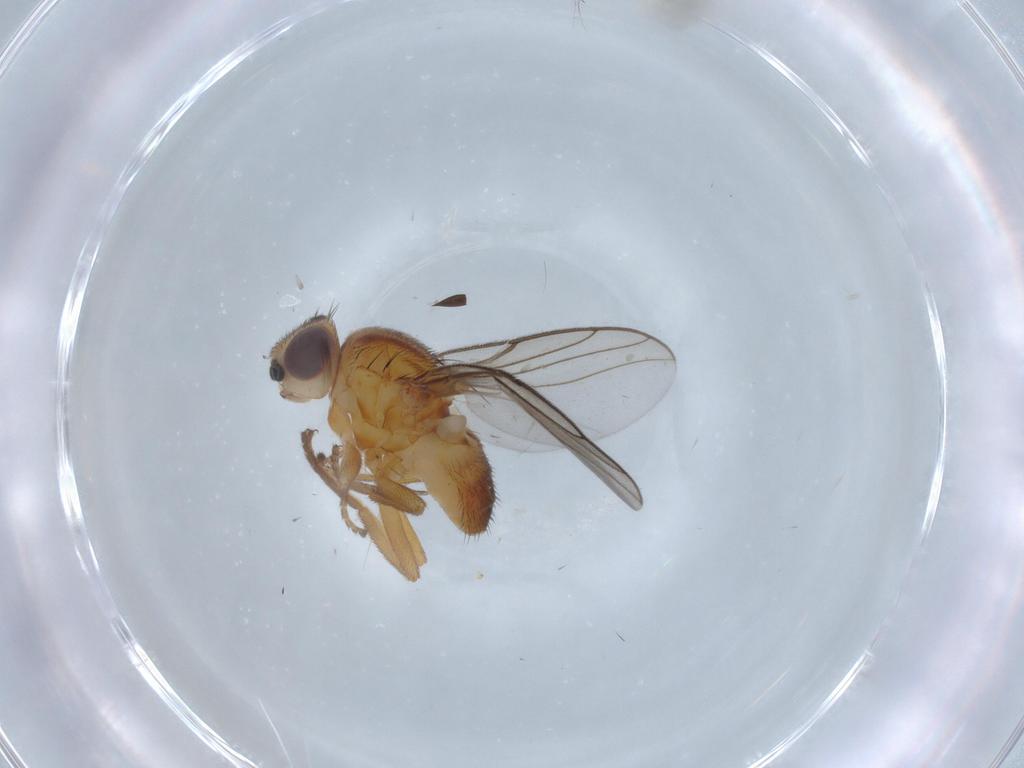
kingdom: Animalia
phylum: Arthropoda
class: Insecta
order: Diptera
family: Chloropidae
